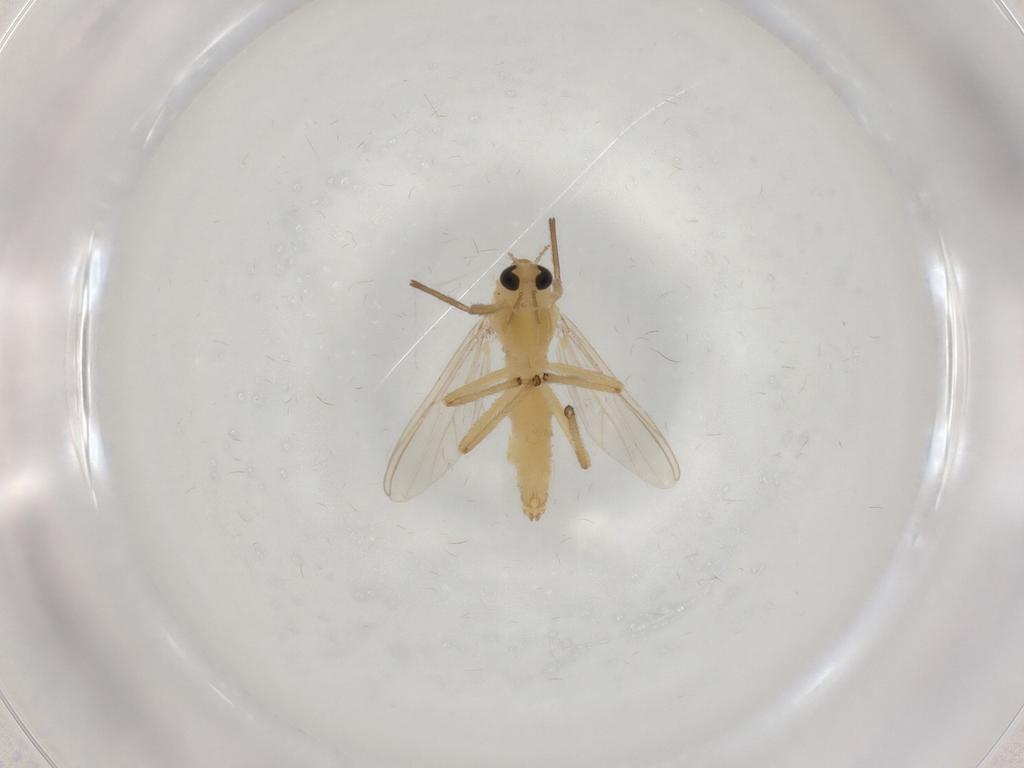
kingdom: Animalia
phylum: Arthropoda
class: Insecta
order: Diptera
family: Chironomidae
